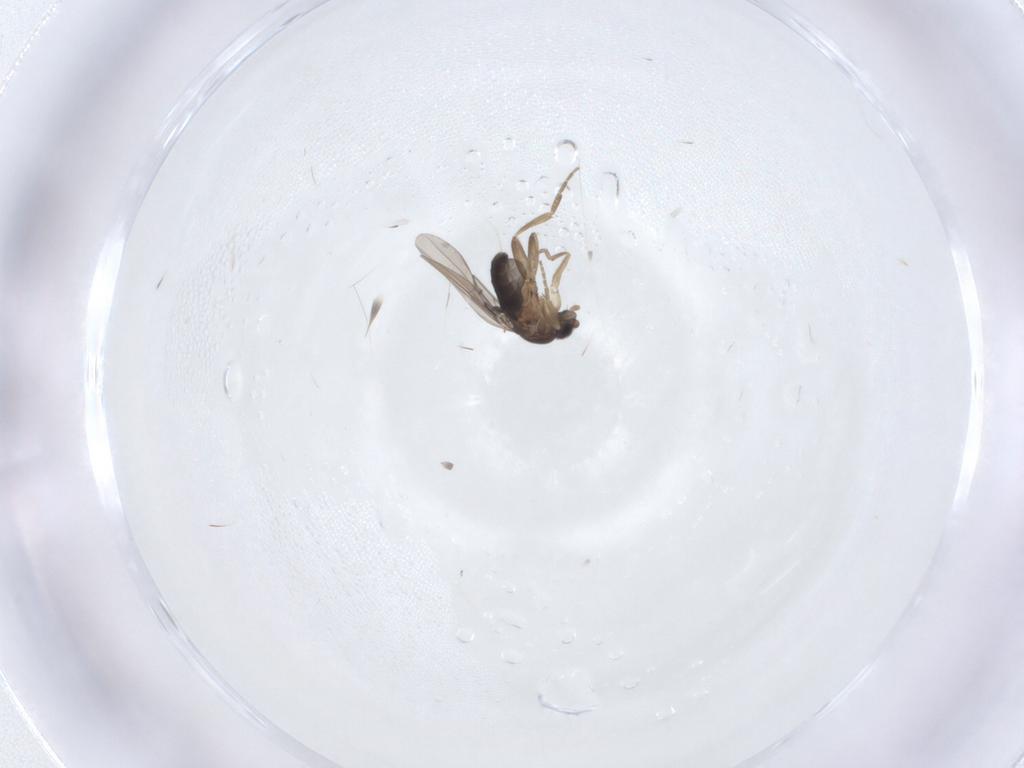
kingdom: Animalia
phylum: Arthropoda
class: Insecta
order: Diptera
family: Phoridae
